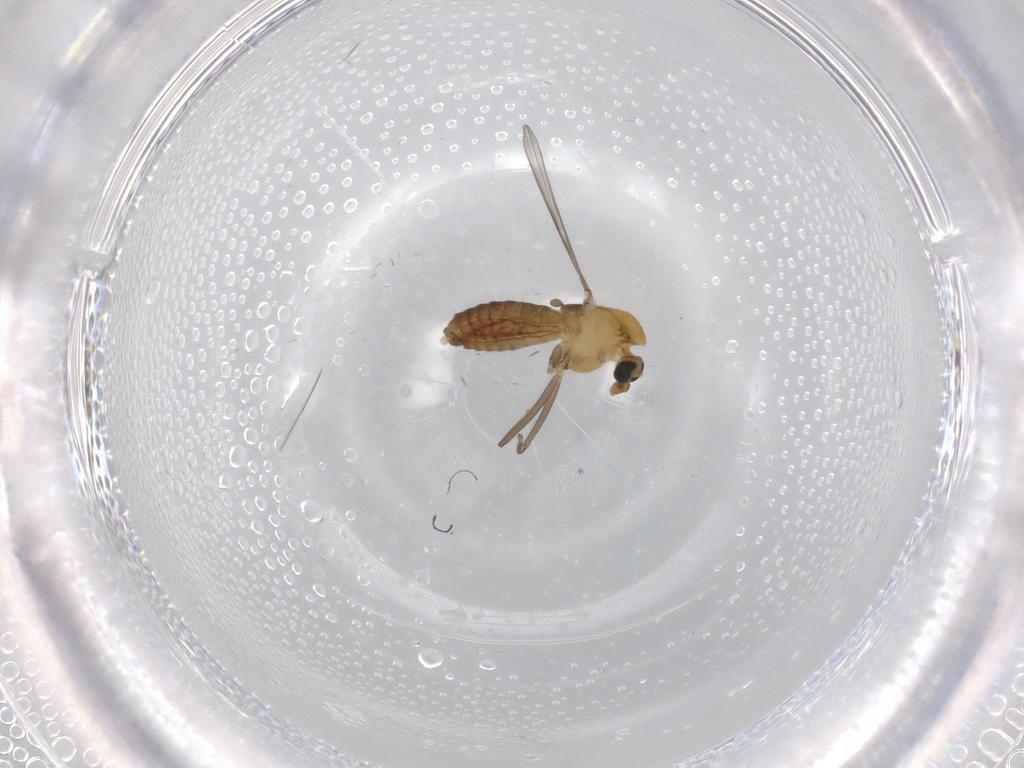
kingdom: Animalia
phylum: Arthropoda
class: Insecta
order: Diptera
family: Chironomidae
